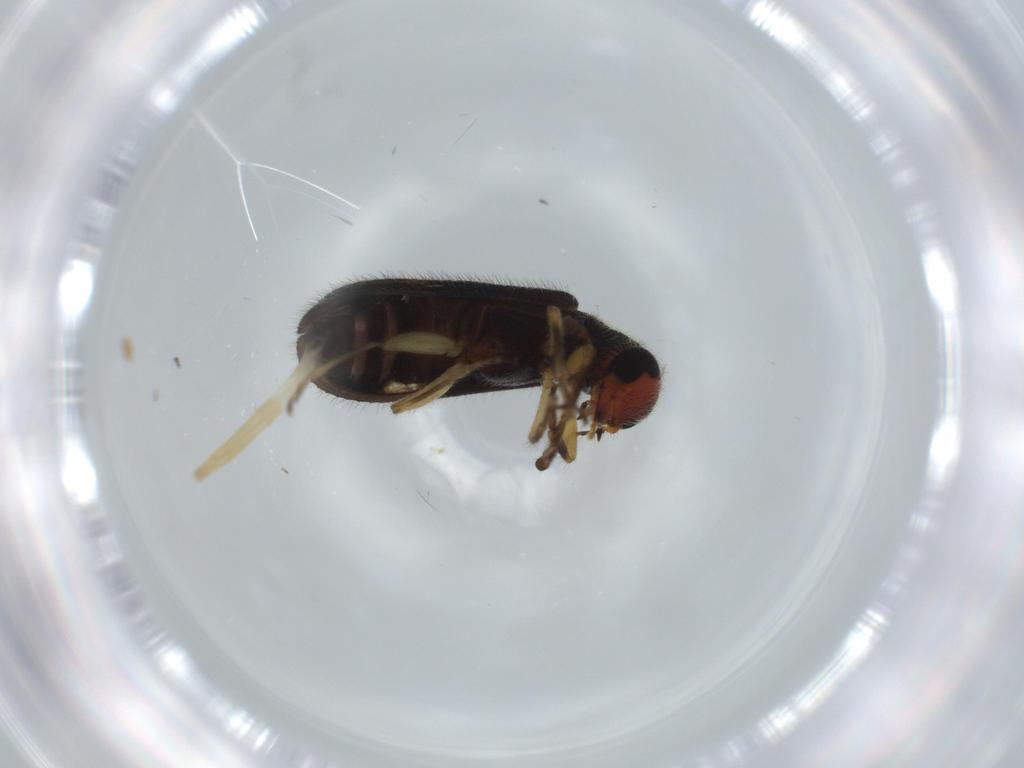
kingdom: Animalia
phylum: Arthropoda
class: Insecta
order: Coleoptera
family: Cleridae
